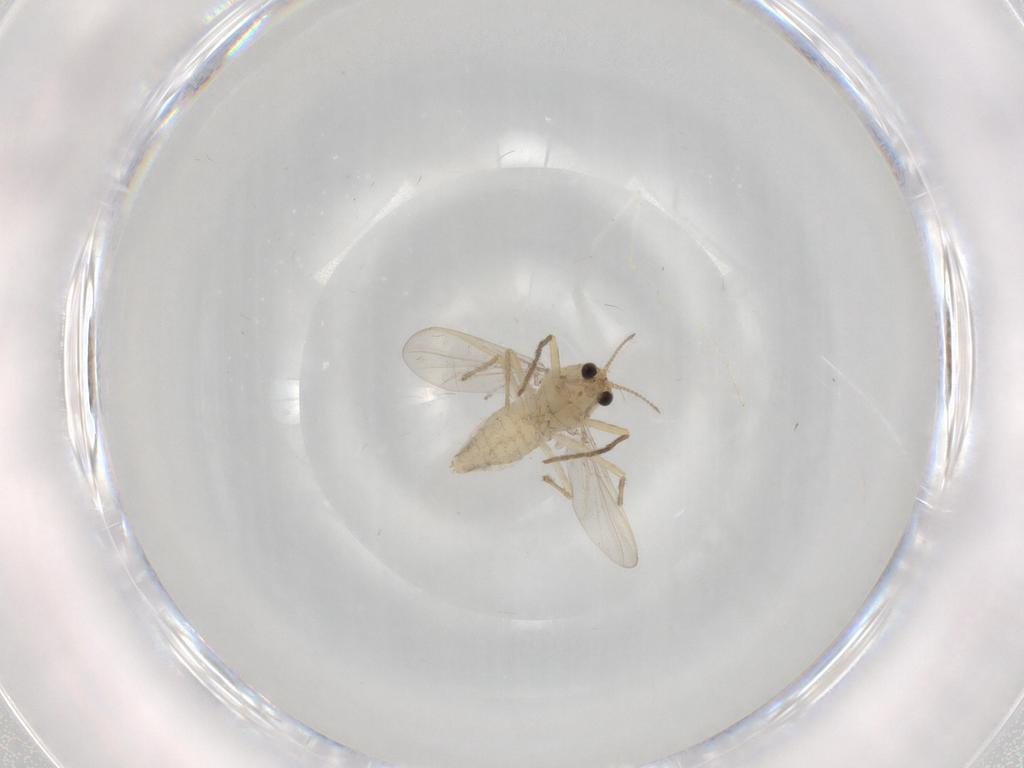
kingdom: Animalia
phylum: Arthropoda
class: Insecta
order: Diptera
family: Chironomidae
